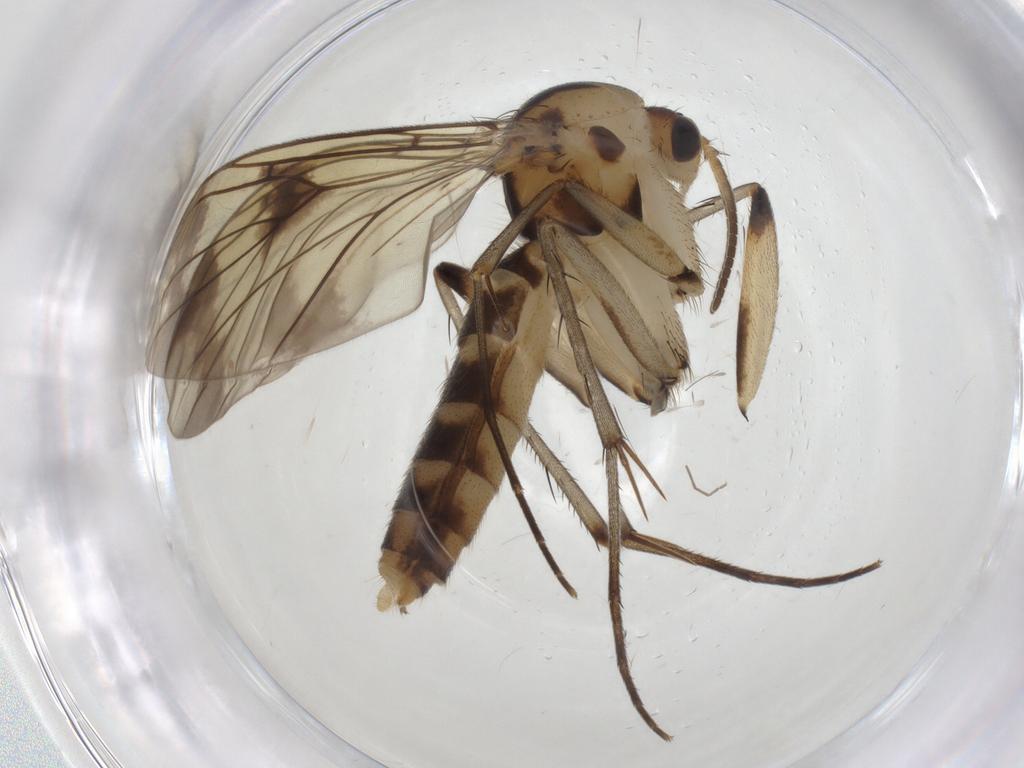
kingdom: Animalia
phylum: Arthropoda
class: Insecta
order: Diptera
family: Mycetophilidae
